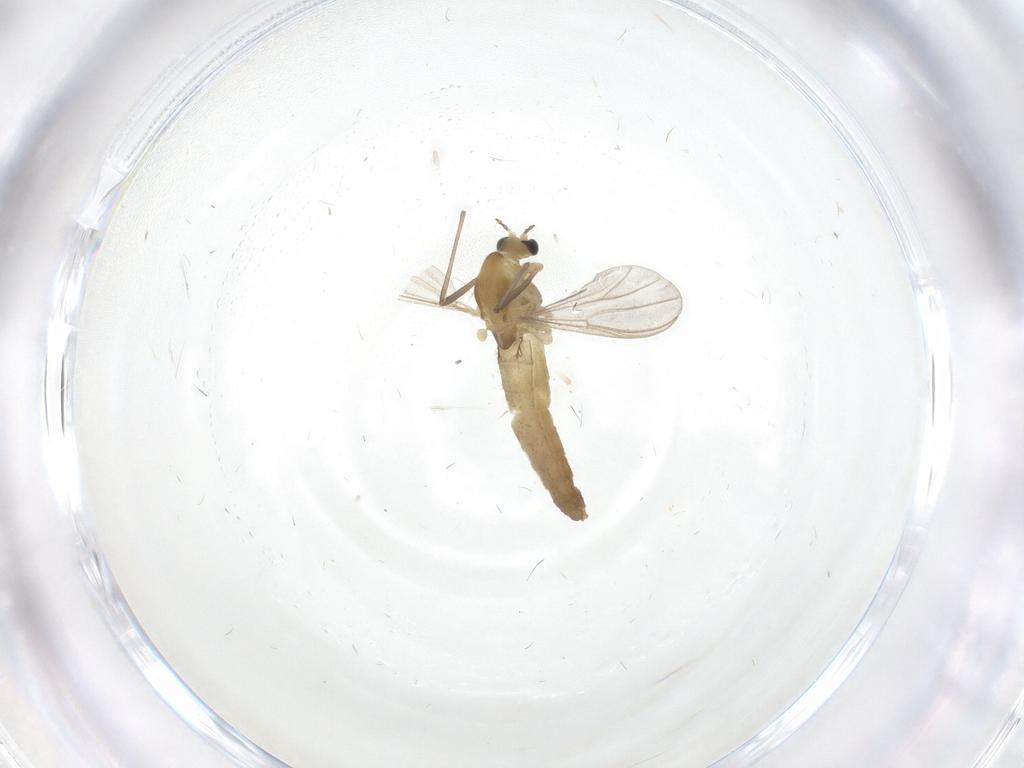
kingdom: Animalia
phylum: Arthropoda
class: Insecta
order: Diptera
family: Chironomidae
